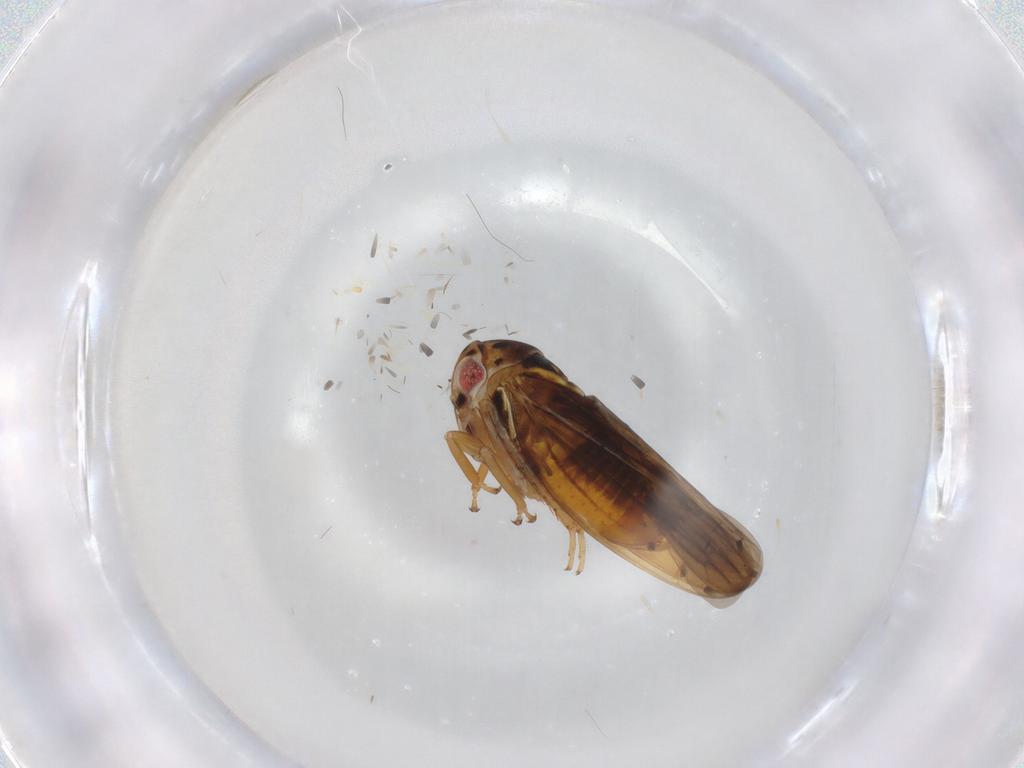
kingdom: Animalia
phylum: Arthropoda
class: Insecta
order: Hemiptera
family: Cicadellidae
